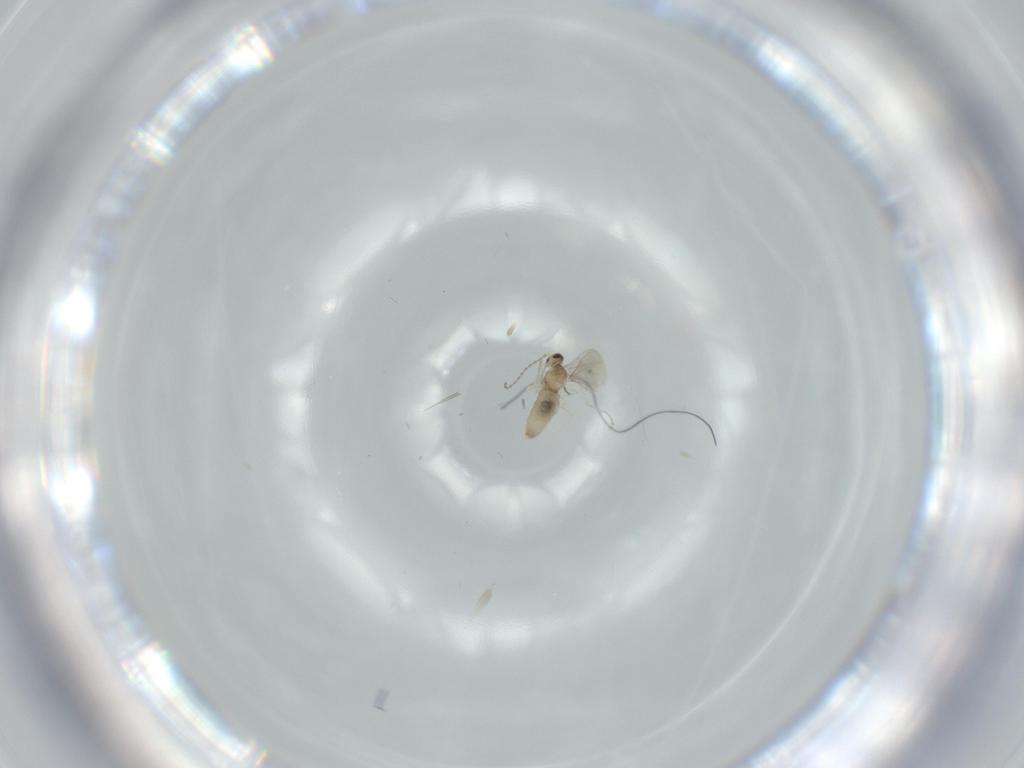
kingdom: Animalia
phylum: Arthropoda
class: Insecta
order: Diptera
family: Cecidomyiidae
